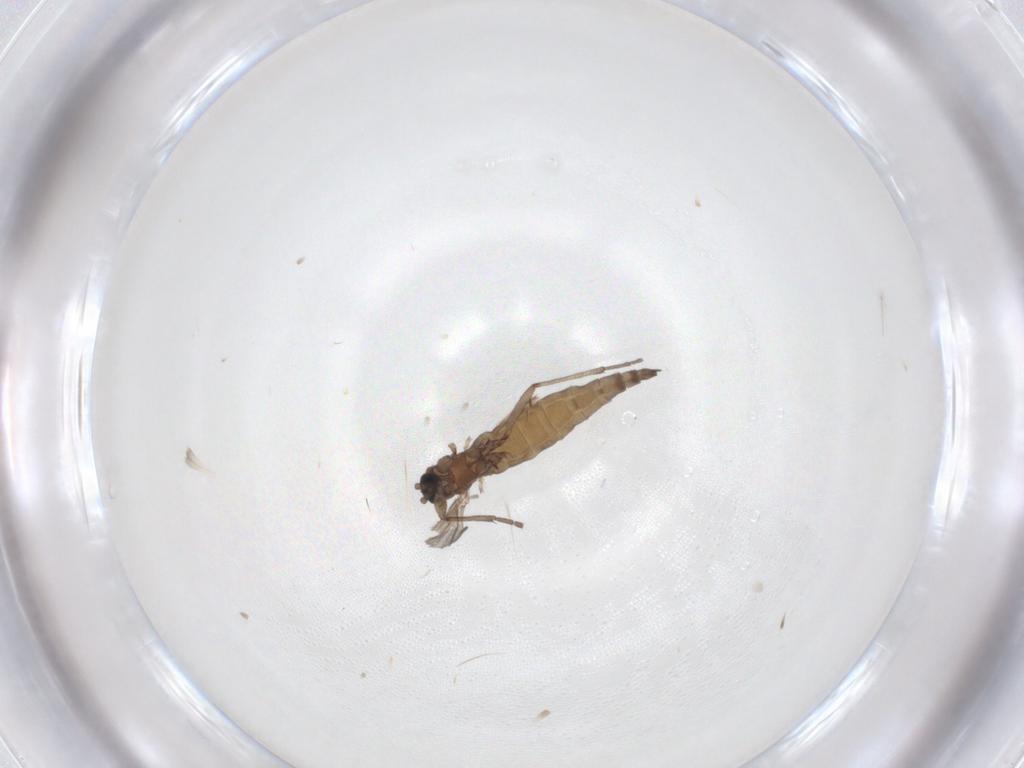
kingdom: Animalia
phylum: Arthropoda
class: Insecta
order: Diptera
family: Sciaridae
